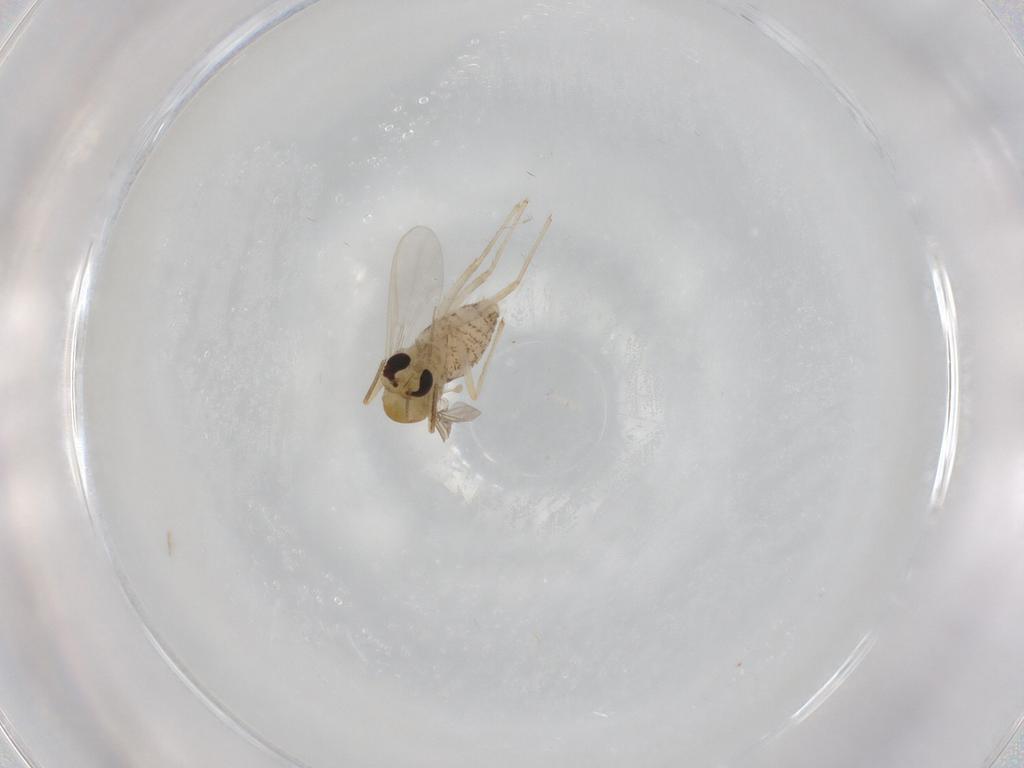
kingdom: Animalia
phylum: Arthropoda
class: Insecta
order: Diptera
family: Chironomidae
